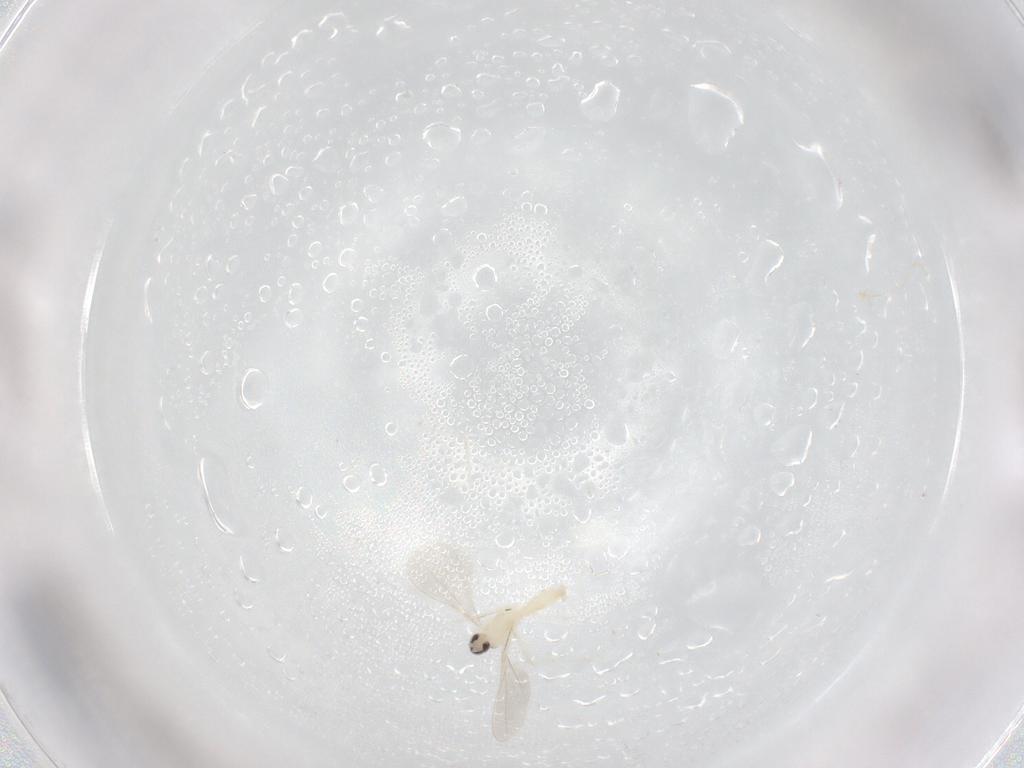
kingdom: Animalia
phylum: Arthropoda
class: Insecta
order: Diptera
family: Cecidomyiidae
